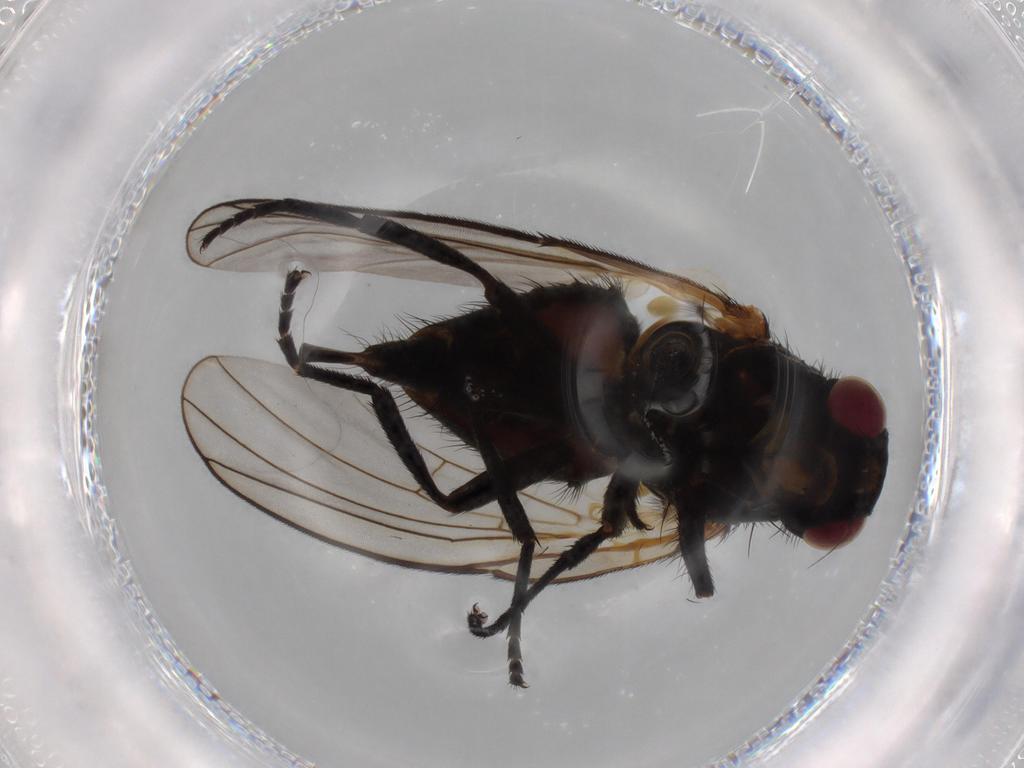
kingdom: Animalia
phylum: Arthropoda
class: Insecta
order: Diptera
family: Agromyzidae
